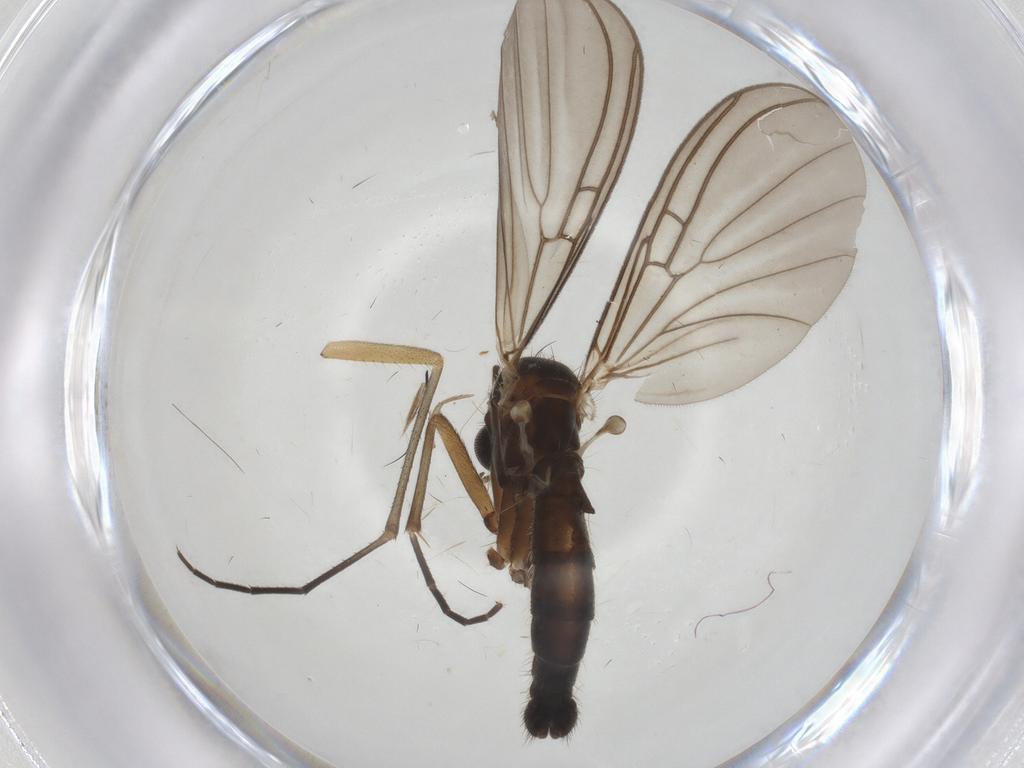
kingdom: Animalia
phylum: Arthropoda
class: Insecta
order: Diptera
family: Mycetophilidae
